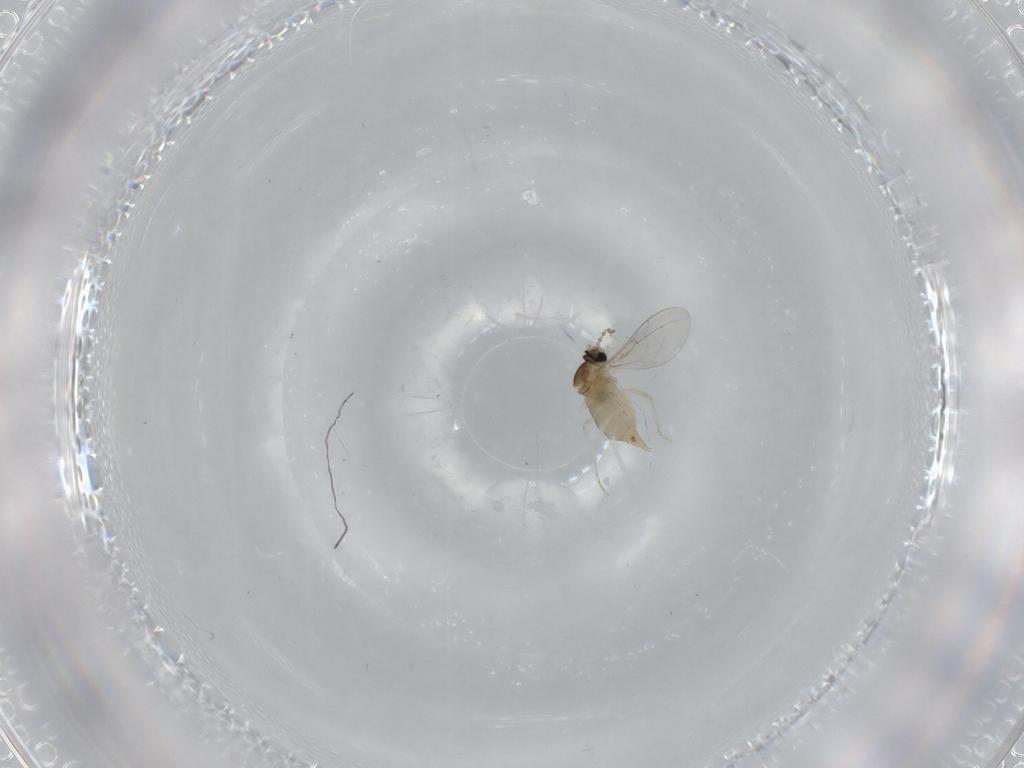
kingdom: Animalia
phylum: Arthropoda
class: Insecta
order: Diptera
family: Cecidomyiidae
